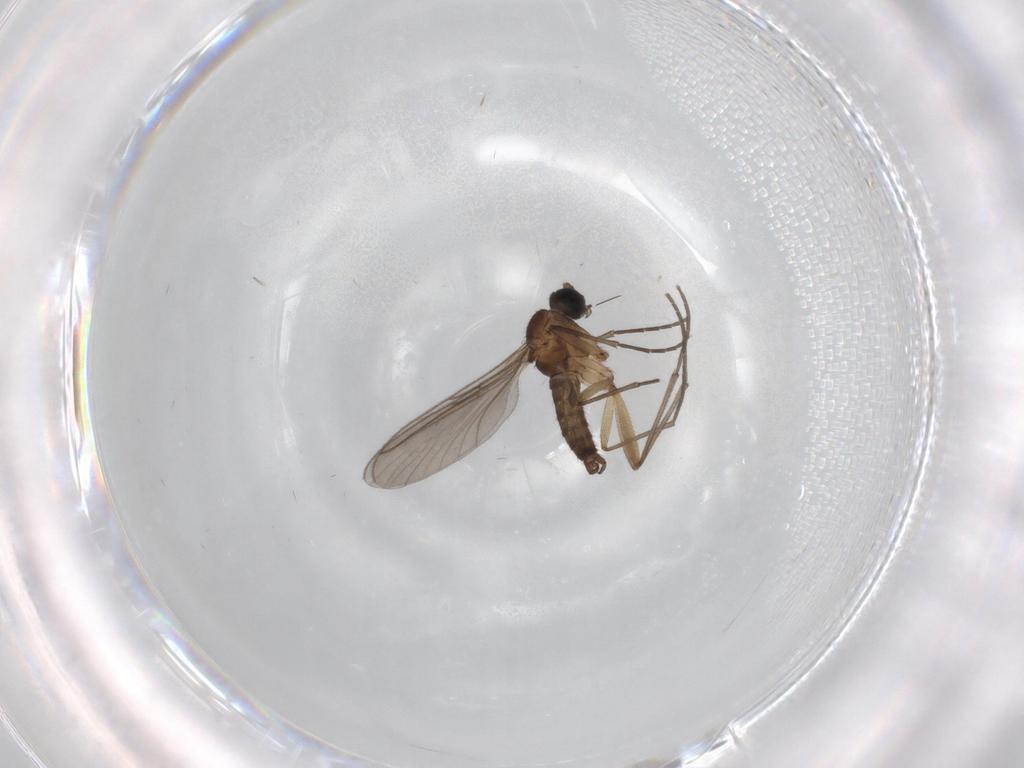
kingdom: Animalia
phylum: Arthropoda
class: Insecta
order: Diptera
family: Sciaridae
